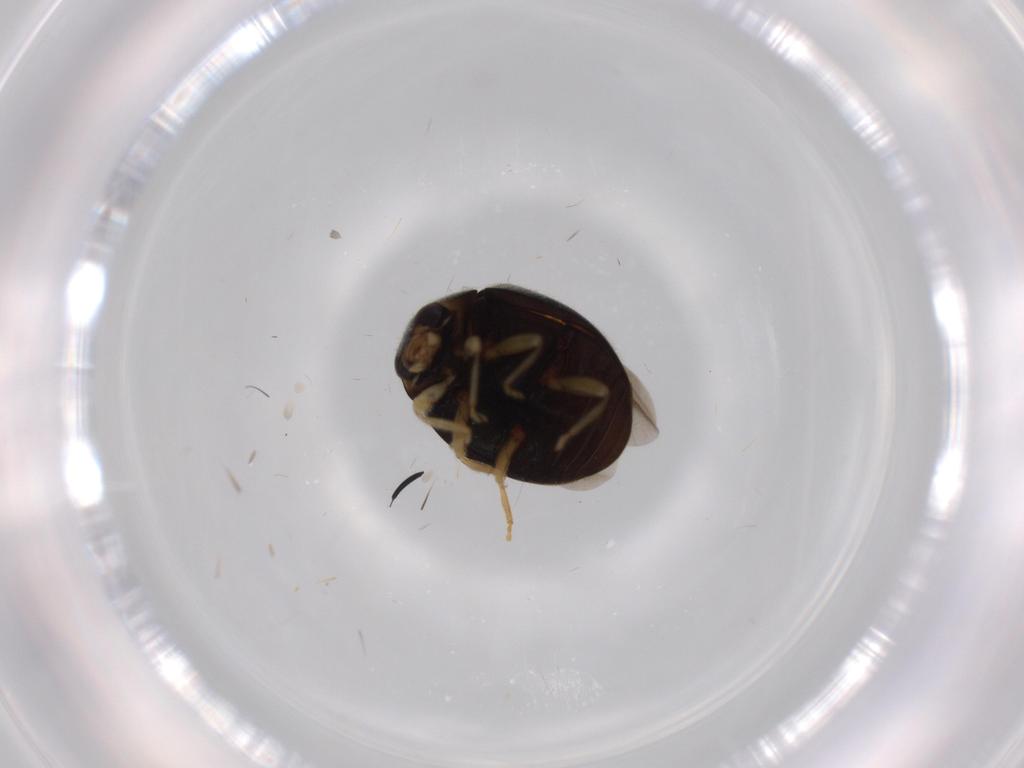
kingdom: Animalia
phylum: Arthropoda
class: Insecta
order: Coleoptera
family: Coccinellidae
